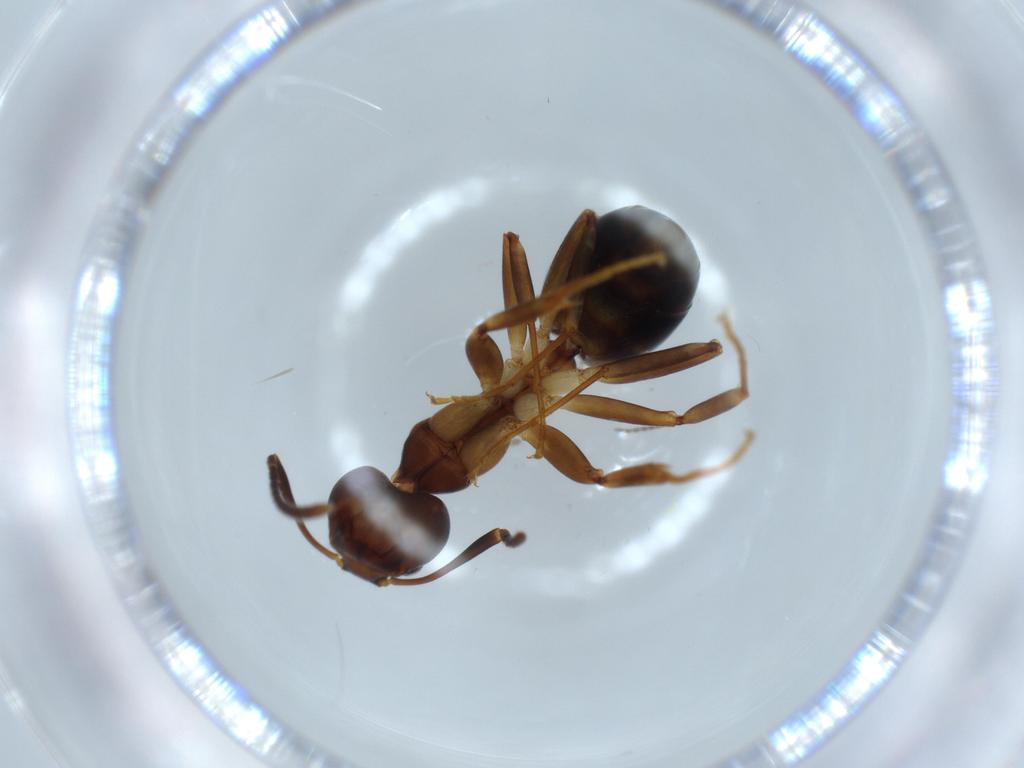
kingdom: Animalia
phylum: Arthropoda
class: Insecta
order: Hymenoptera
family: Formicidae
